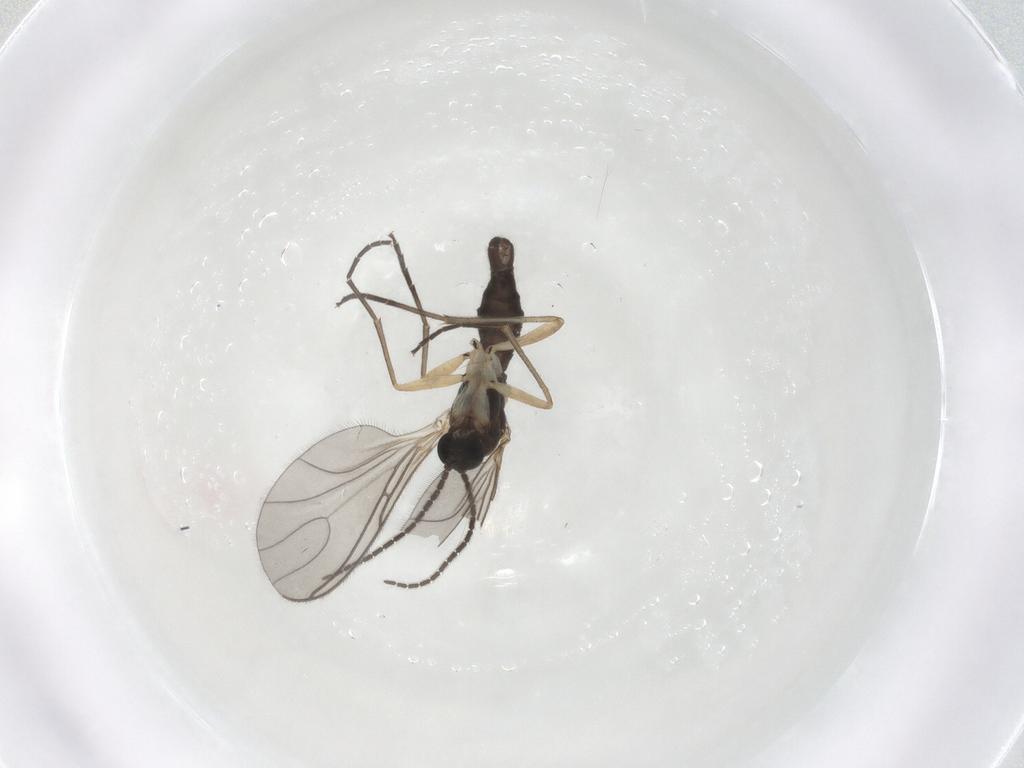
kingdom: Animalia
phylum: Arthropoda
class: Insecta
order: Diptera
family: Sciaridae
